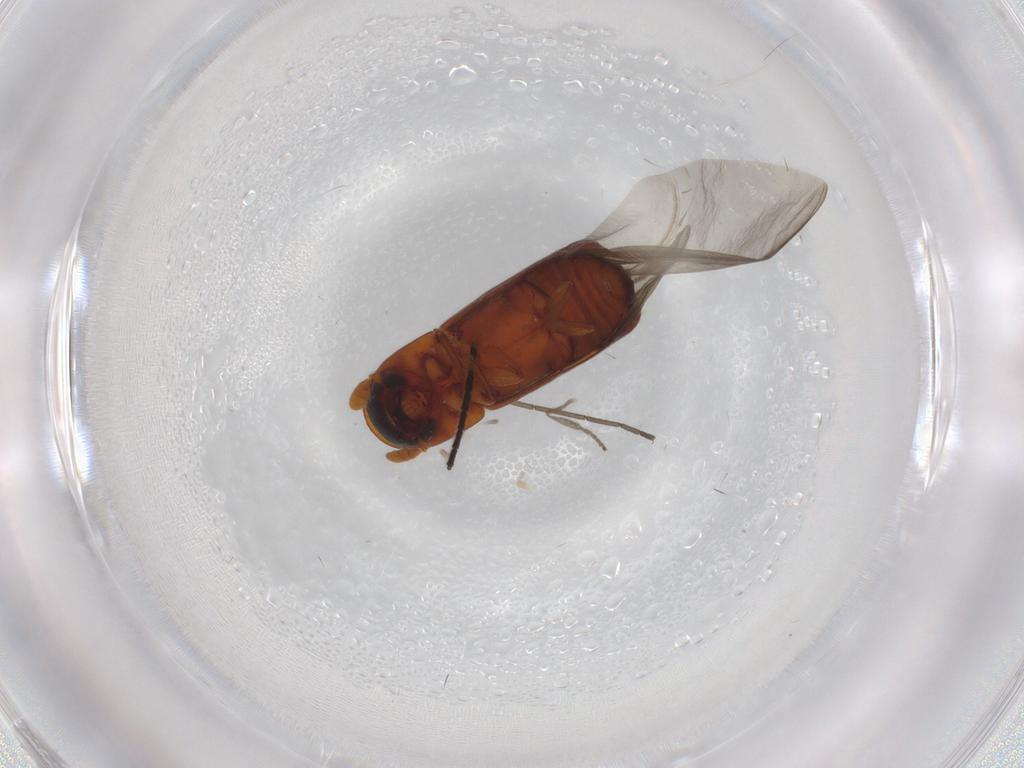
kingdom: Animalia
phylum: Arthropoda
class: Insecta
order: Coleoptera
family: Curculionidae
